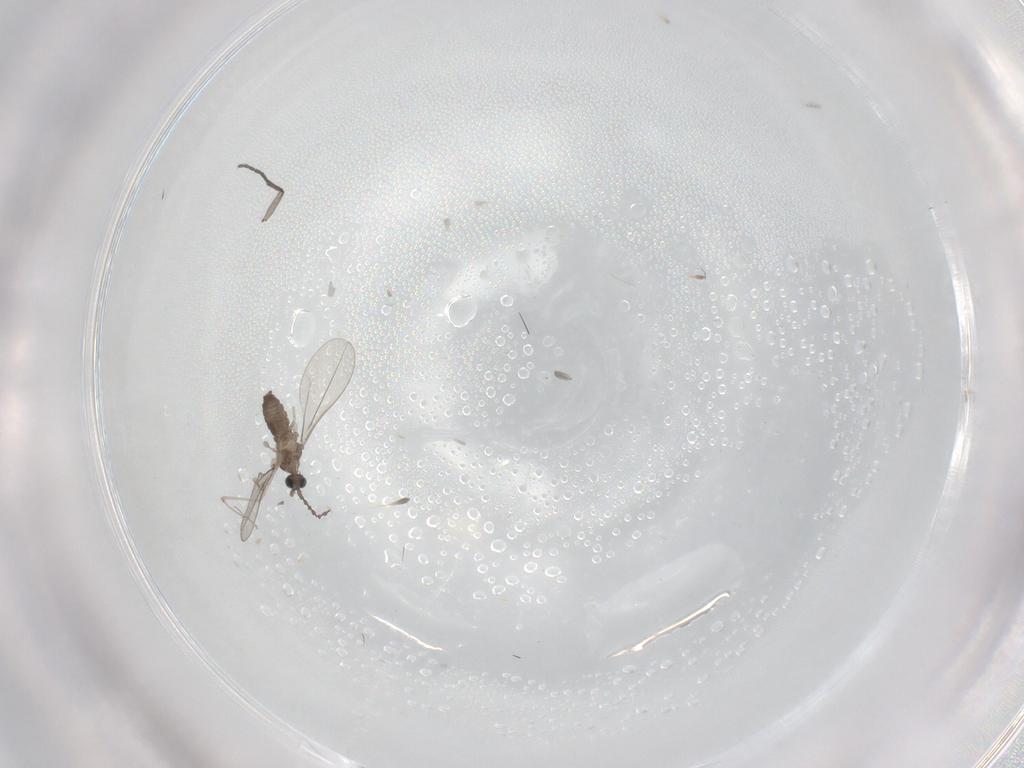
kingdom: Animalia
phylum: Arthropoda
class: Insecta
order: Diptera
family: Sciaridae
